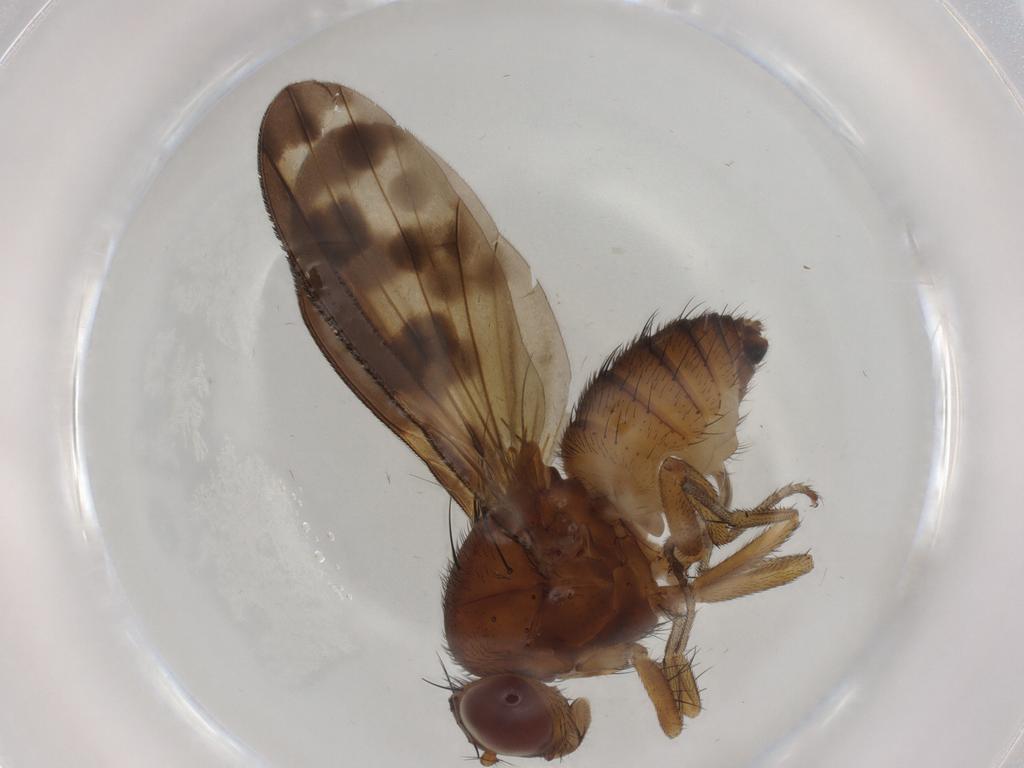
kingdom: Animalia
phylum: Arthropoda
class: Insecta
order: Diptera
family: Cecidomyiidae
